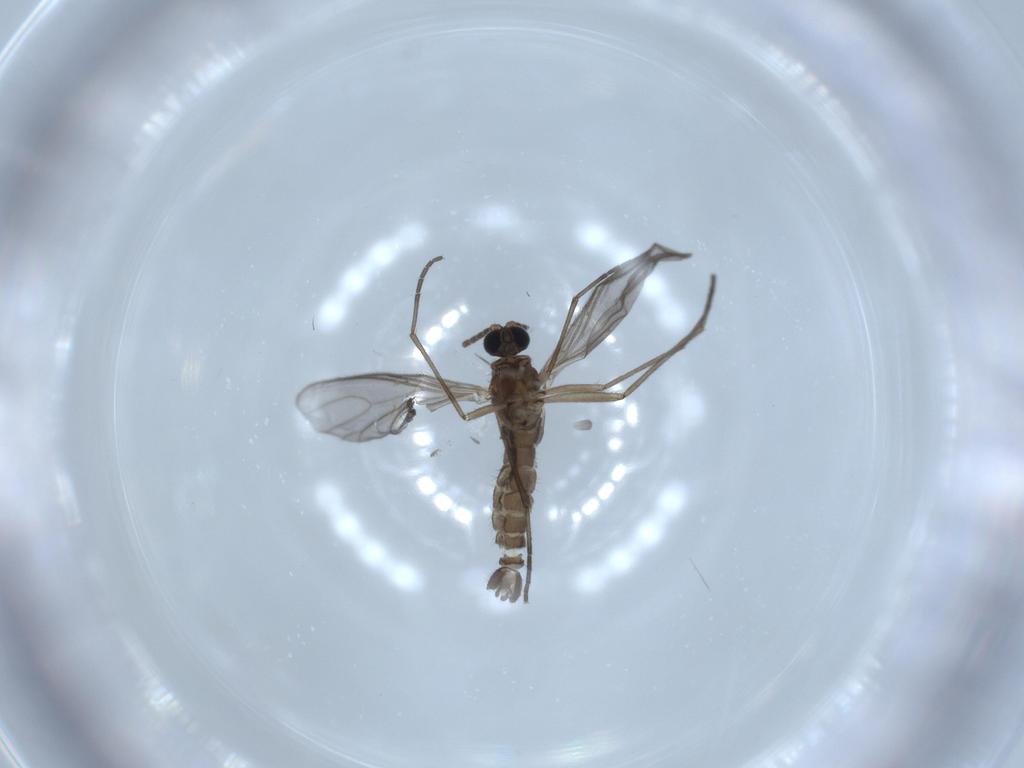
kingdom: Animalia
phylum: Arthropoda
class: Insecta
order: Diptera
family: Sciaridae
